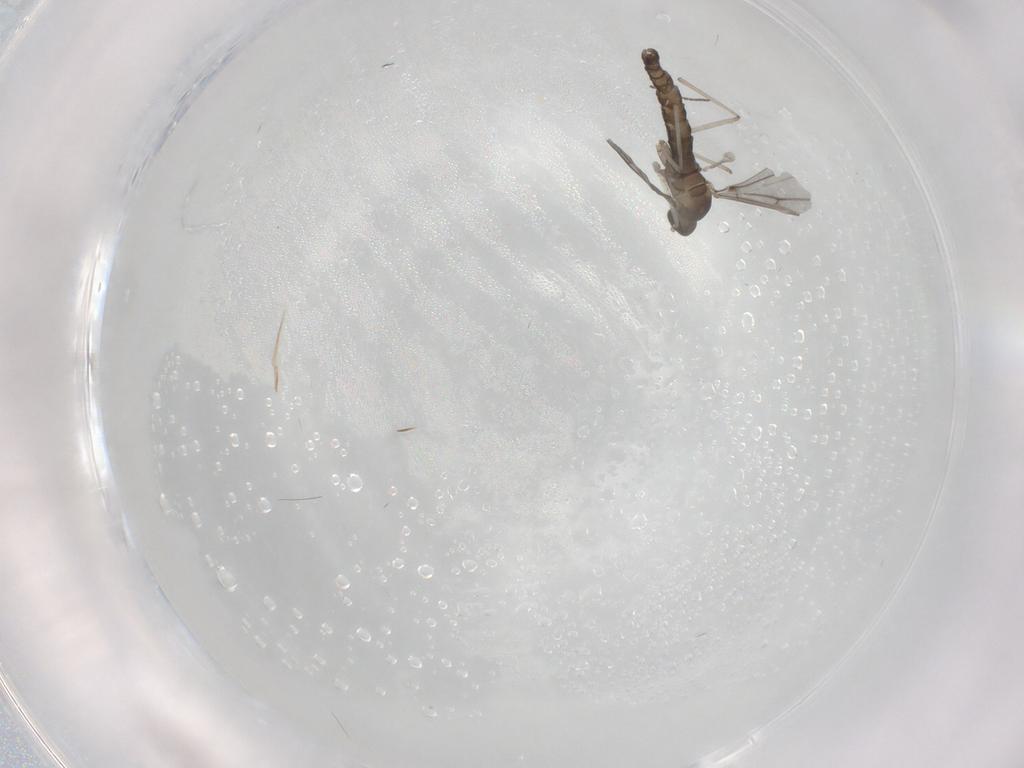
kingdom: Animalia
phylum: Arthropoda
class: Insecta
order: Diptera
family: Cecidomyiidae
